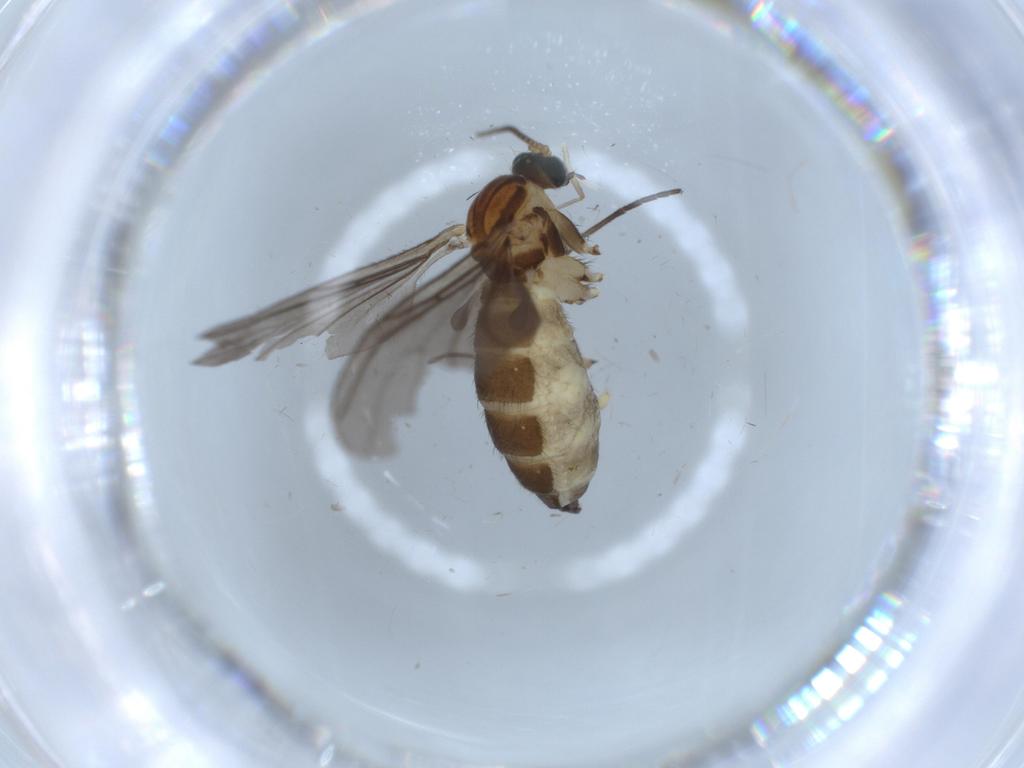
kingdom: Animalia
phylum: Arthropoda
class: Insecta
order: Diptera
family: Sciaridae
